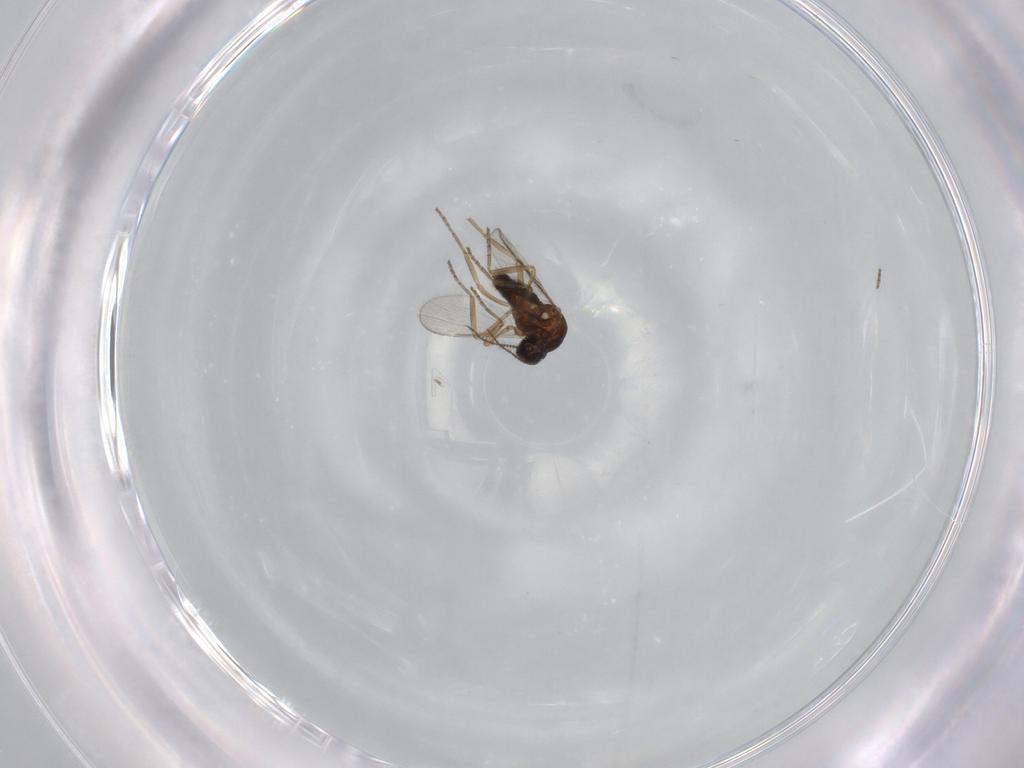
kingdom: Animalia
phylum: Arthropoda
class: Insecta
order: Diptera
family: Ceratopogonidae
